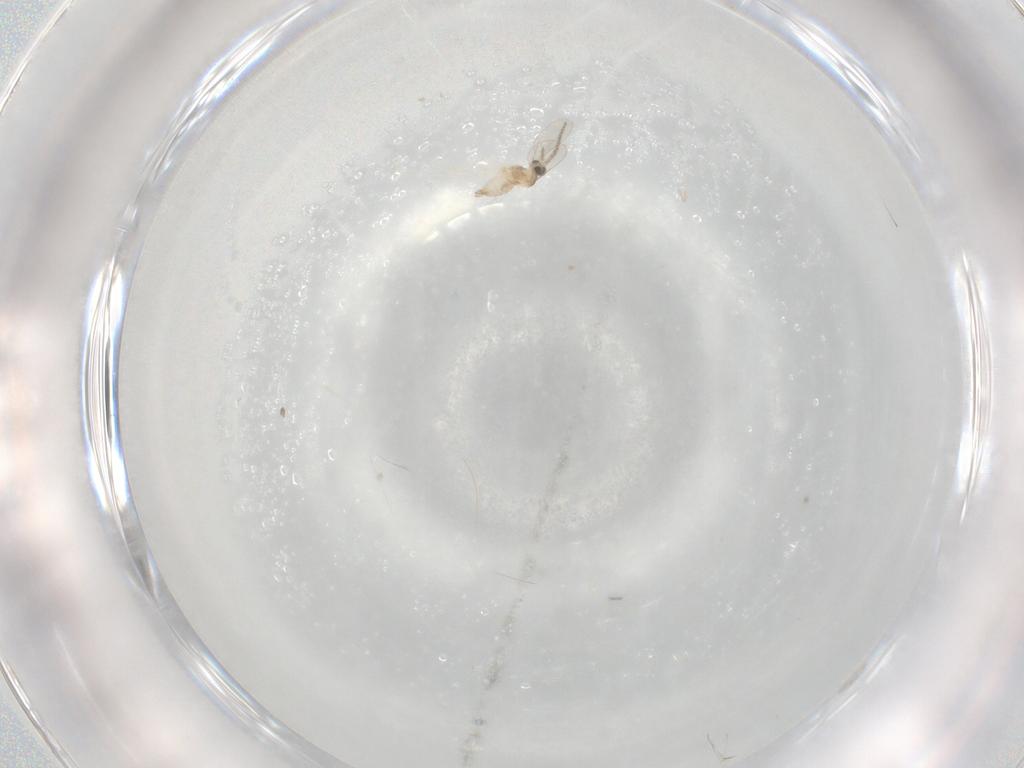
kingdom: Animalia
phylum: Arthropoda
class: Insecta
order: Diptera
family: Cecidomyiidae
